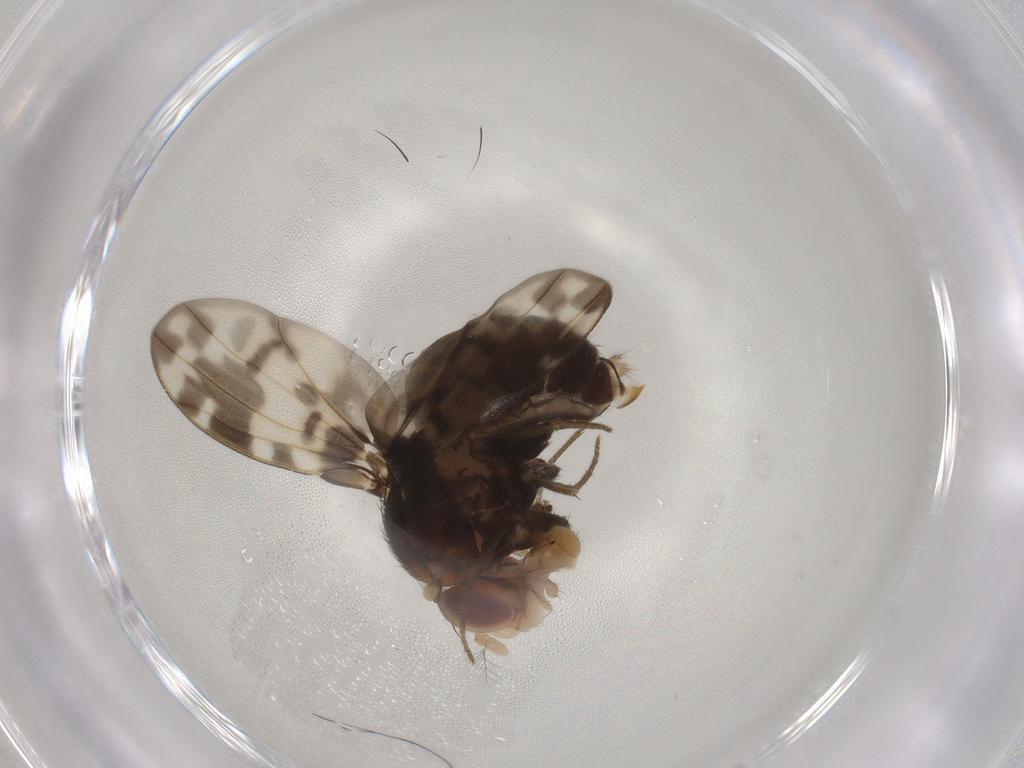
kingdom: Animalia
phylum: Arthropoda
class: Insecta
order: Diptera
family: Drosophilidae
